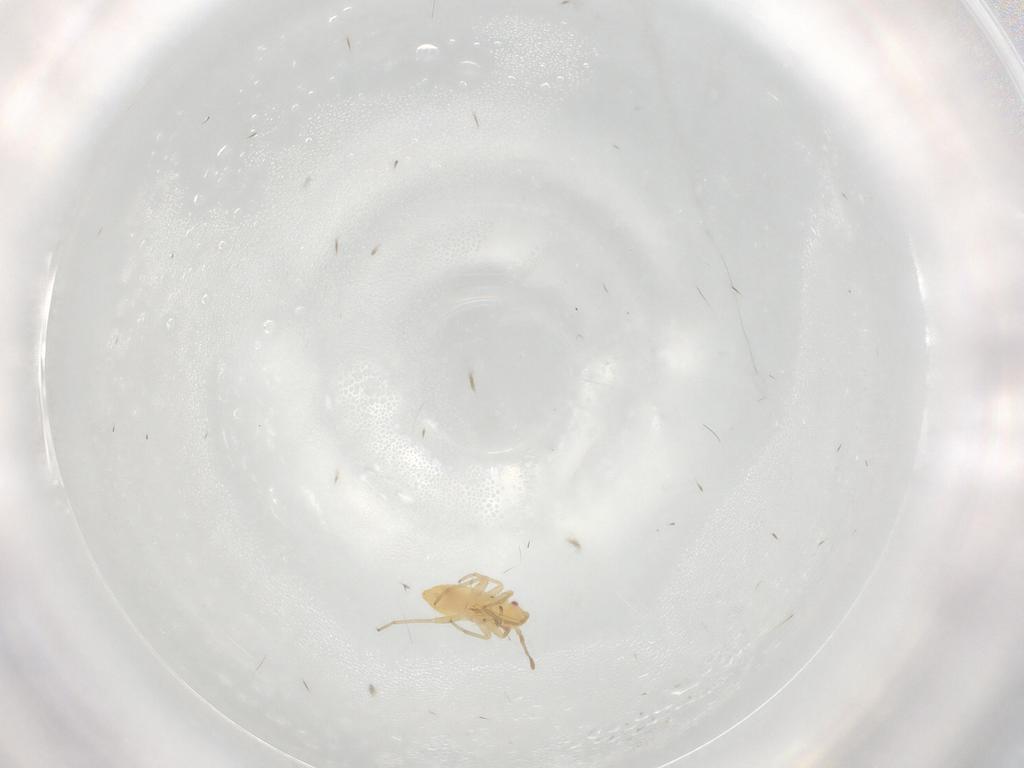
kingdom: Animalia
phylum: Arthropoda
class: Insecta
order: Hemiptera
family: Miridae
